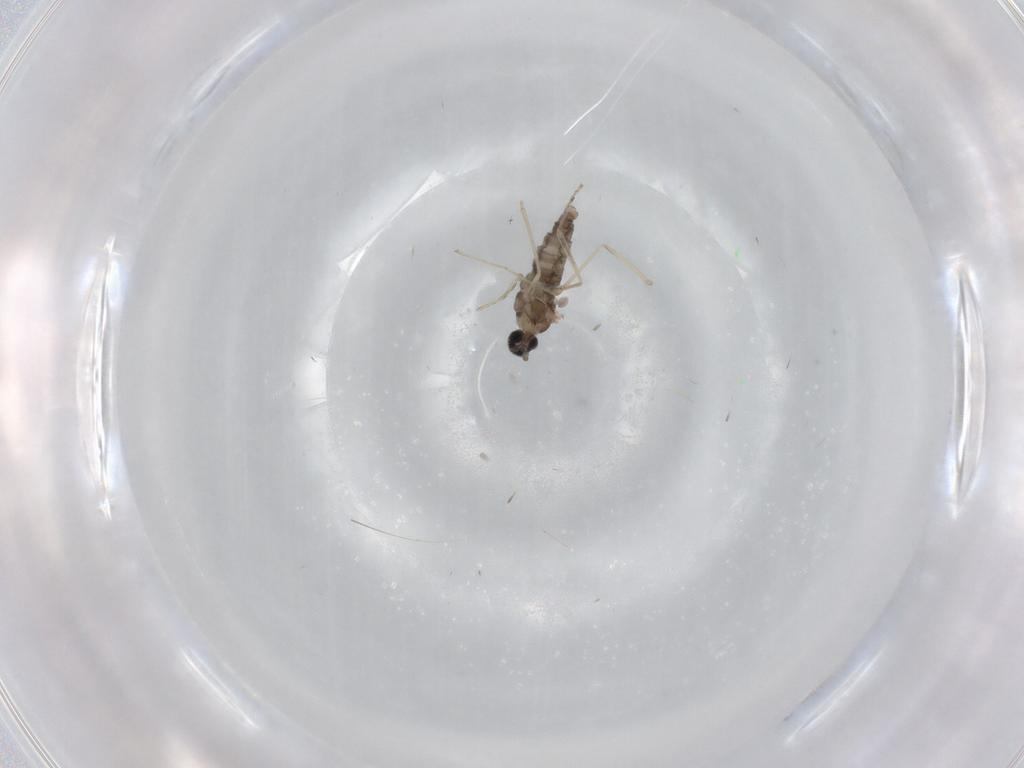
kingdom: Animalia
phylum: Arthropoda
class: Insecta
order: Diptera
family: Cecidomyiidae
